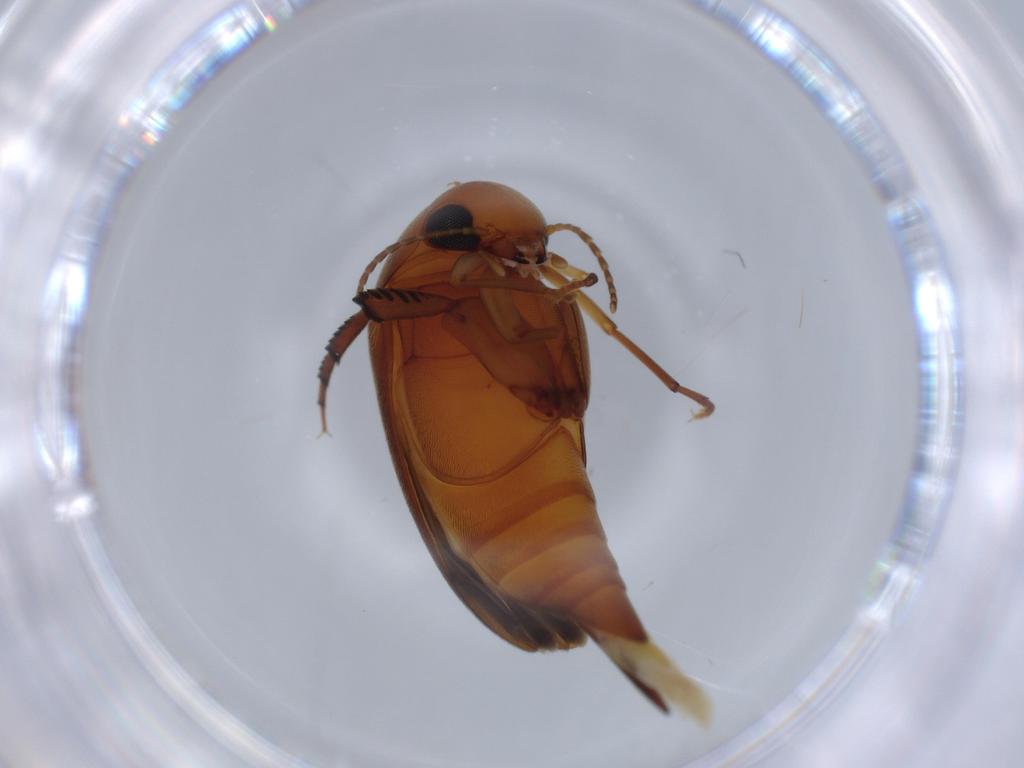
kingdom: Animalia
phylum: Arthropoda
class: Insecta
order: Coleoptera
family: Mordellidae
